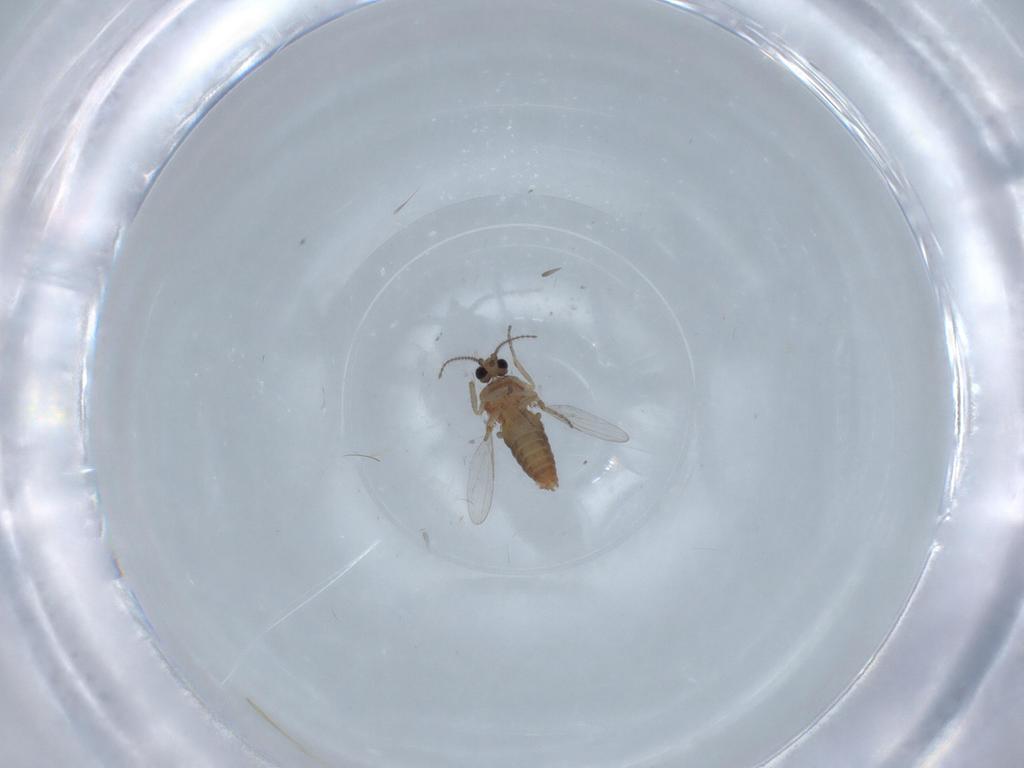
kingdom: Animalia
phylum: Arthropoda
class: Insecta
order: Diptera
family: Ceratopogonidae
